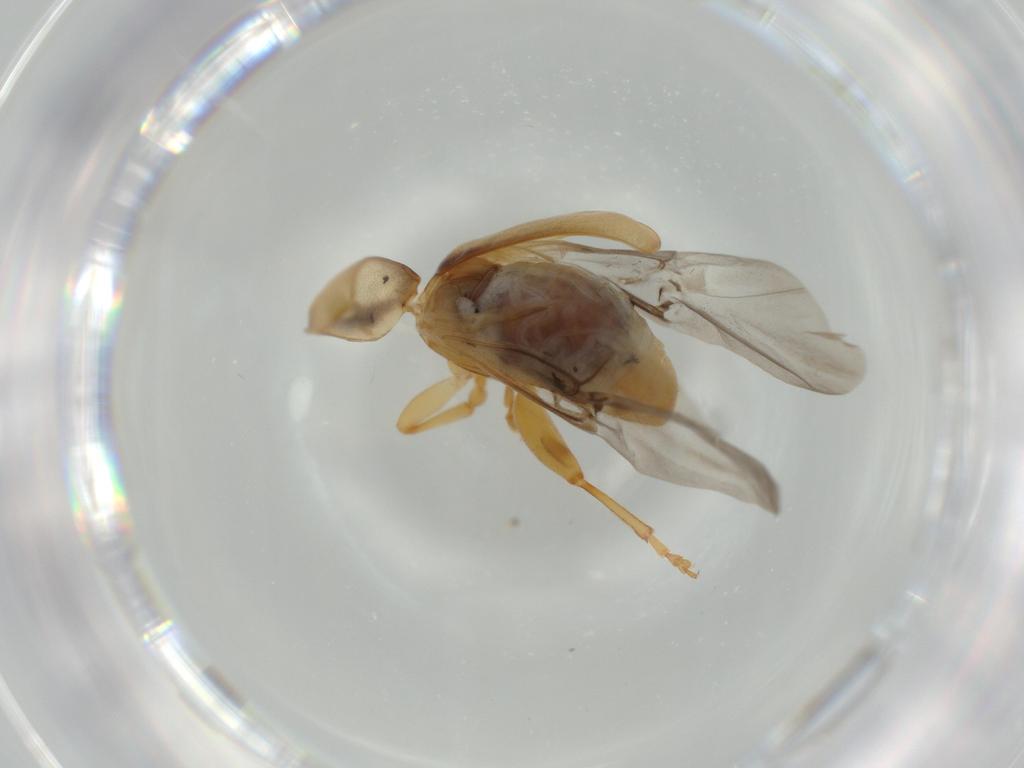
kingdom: Animalia
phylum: Arthropoda
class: Insecta
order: Coleoptera
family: Chrysomelidae
